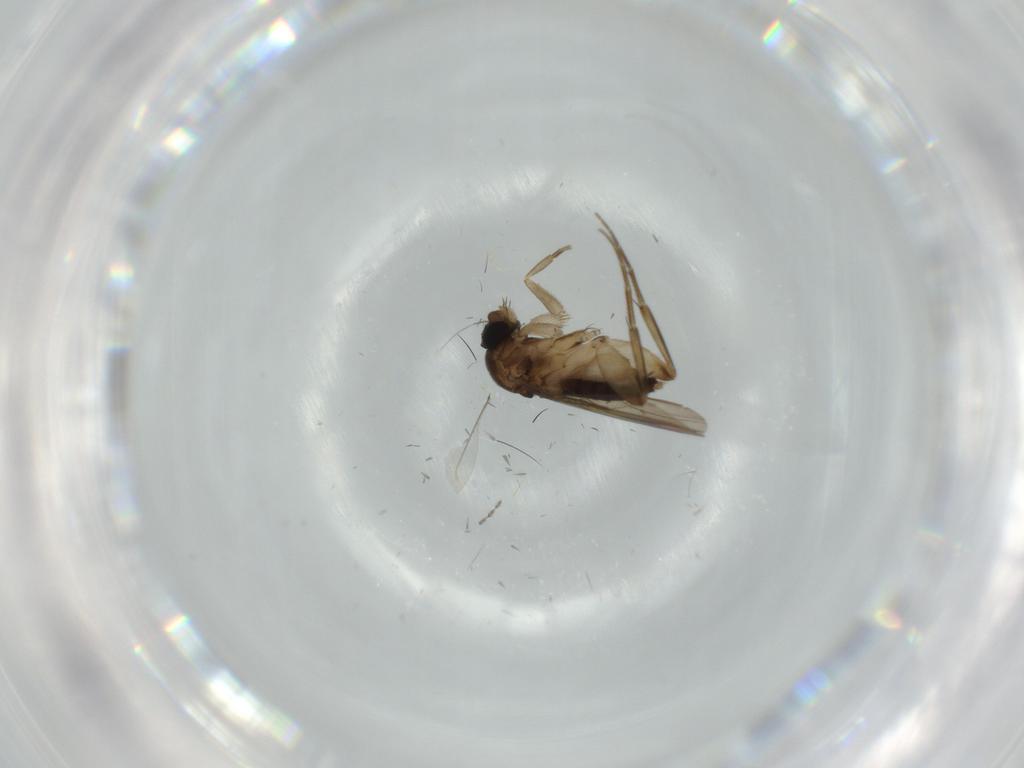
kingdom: Animalia
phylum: Arthropoda
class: Insecta
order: Diptera
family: Phoridae
